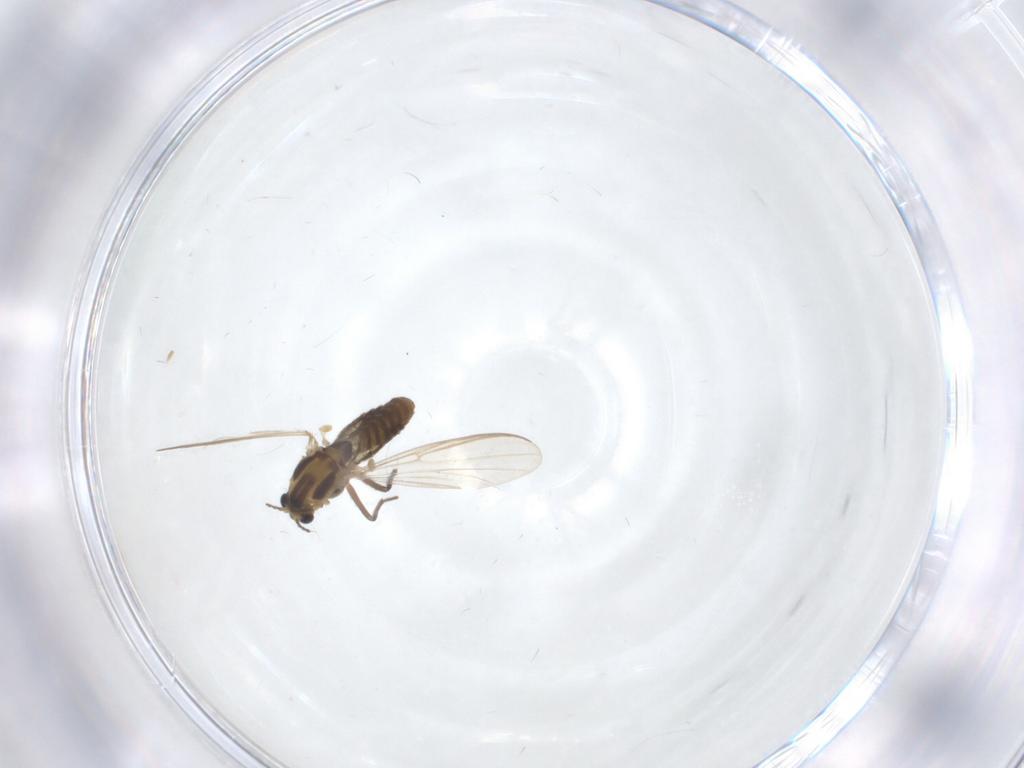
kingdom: Animalia
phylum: Arthropoda
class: Insecta
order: Diptera
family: Chironomidae
